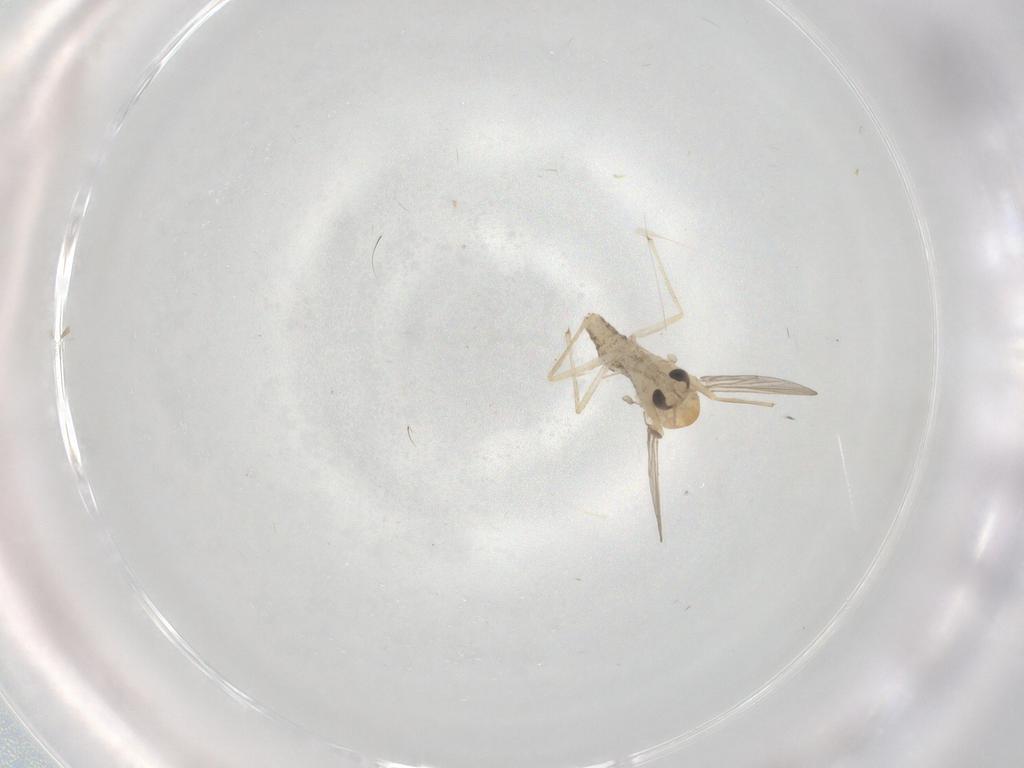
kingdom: Animalia
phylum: Arthropoda
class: Insecta
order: Diptera
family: Chironomidae
